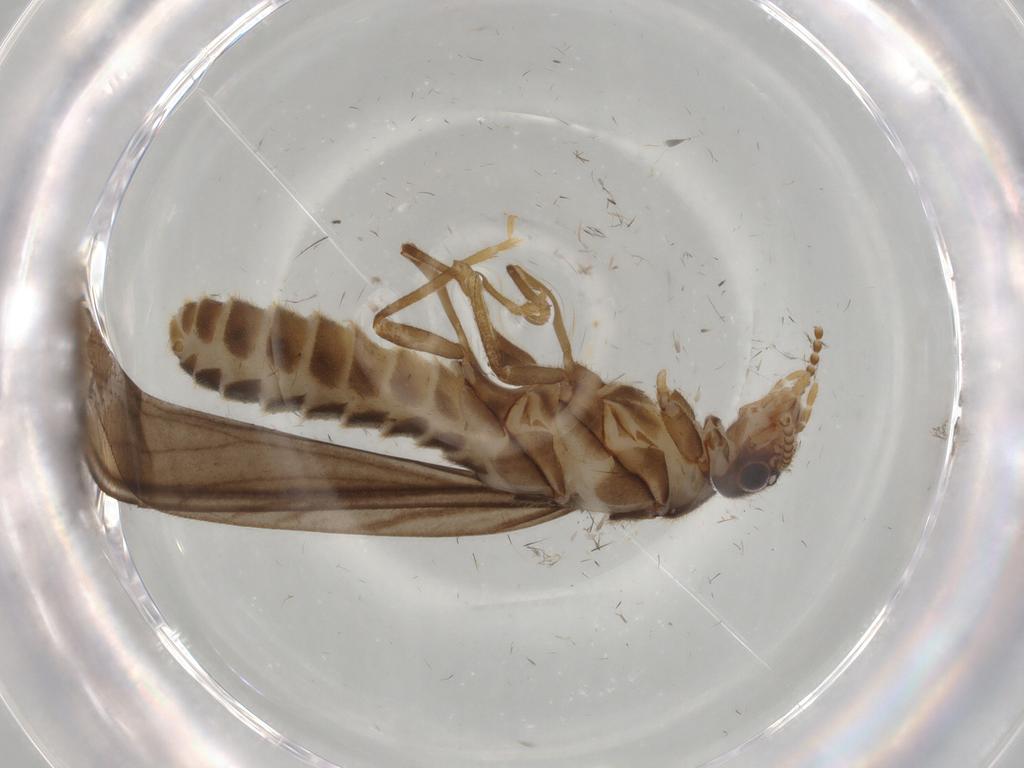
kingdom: Animalia
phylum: Arthropoda
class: Insecta
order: Blattodea
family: Termitidae
